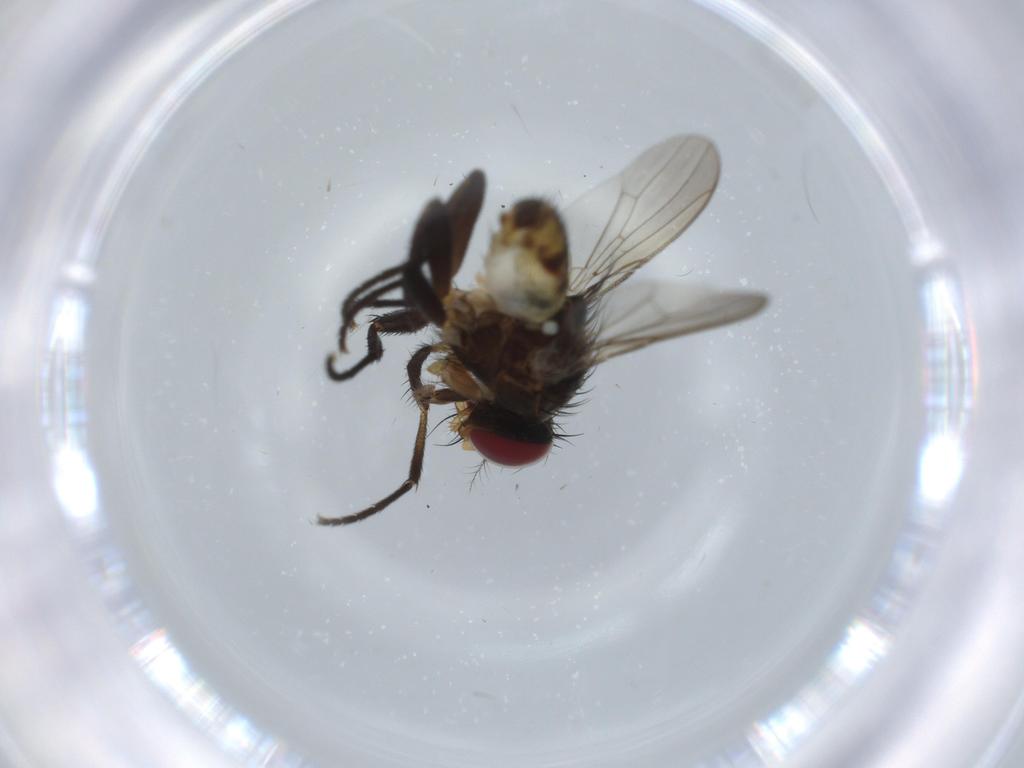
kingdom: Animalia
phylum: Arthropoda
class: Insecta
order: Diptera
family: Anthomyiidae
